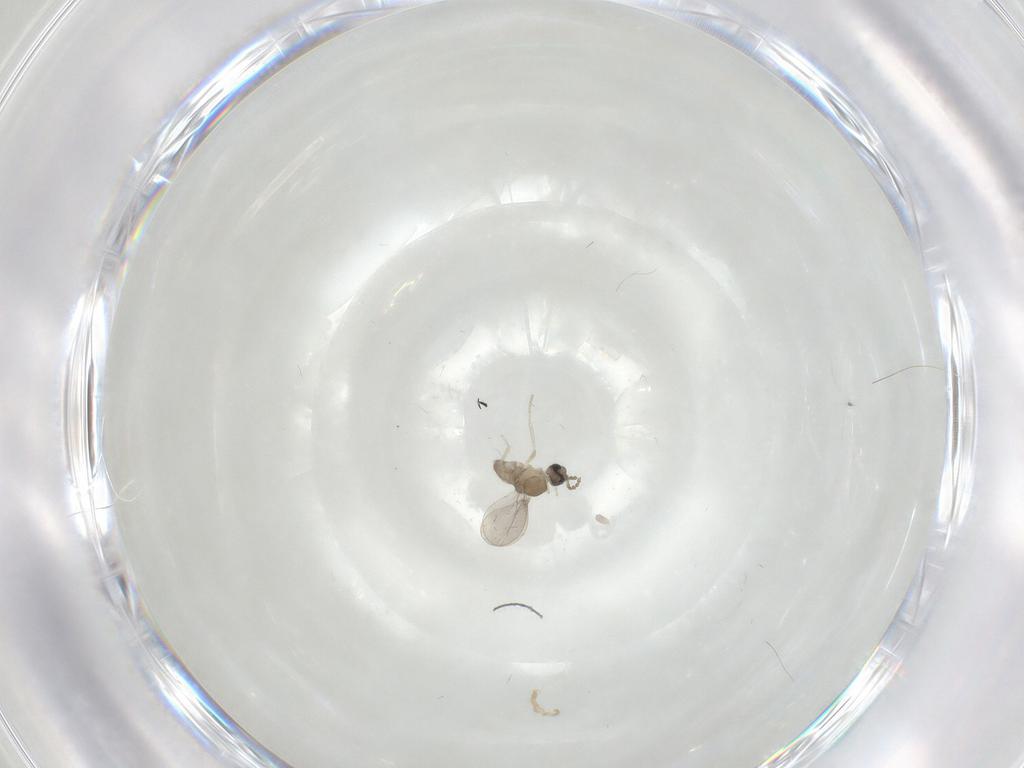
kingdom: Animalia
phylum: Arthropoda
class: Insecta
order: Diptera
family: Cecidomyiidae
